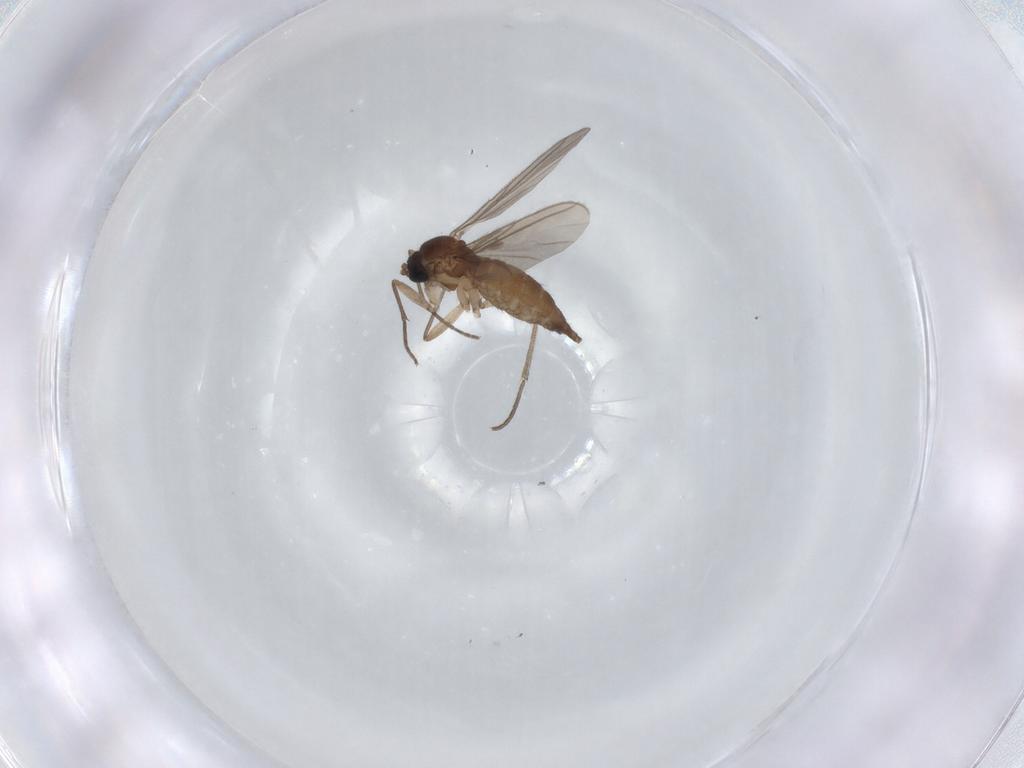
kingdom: Animalia
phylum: Arthropoda
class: Insecta
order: Diptera
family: Sciaridae
